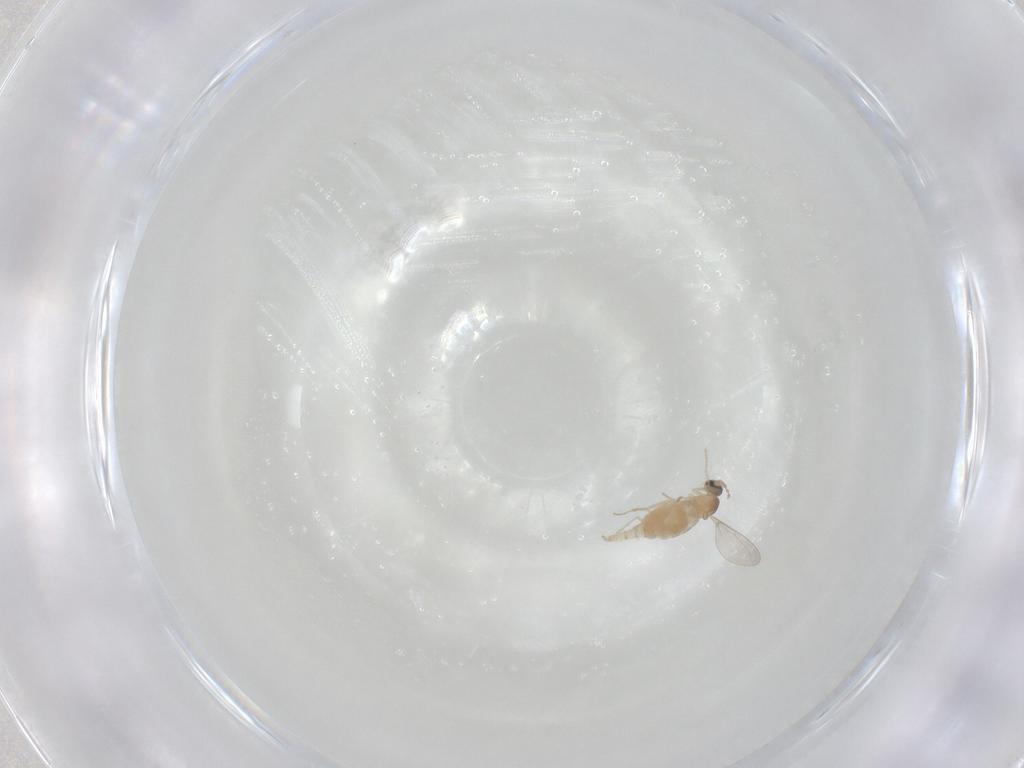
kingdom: Animalia
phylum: Arthropoda
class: Insecta
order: Diptera
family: Cecidomyiidae
